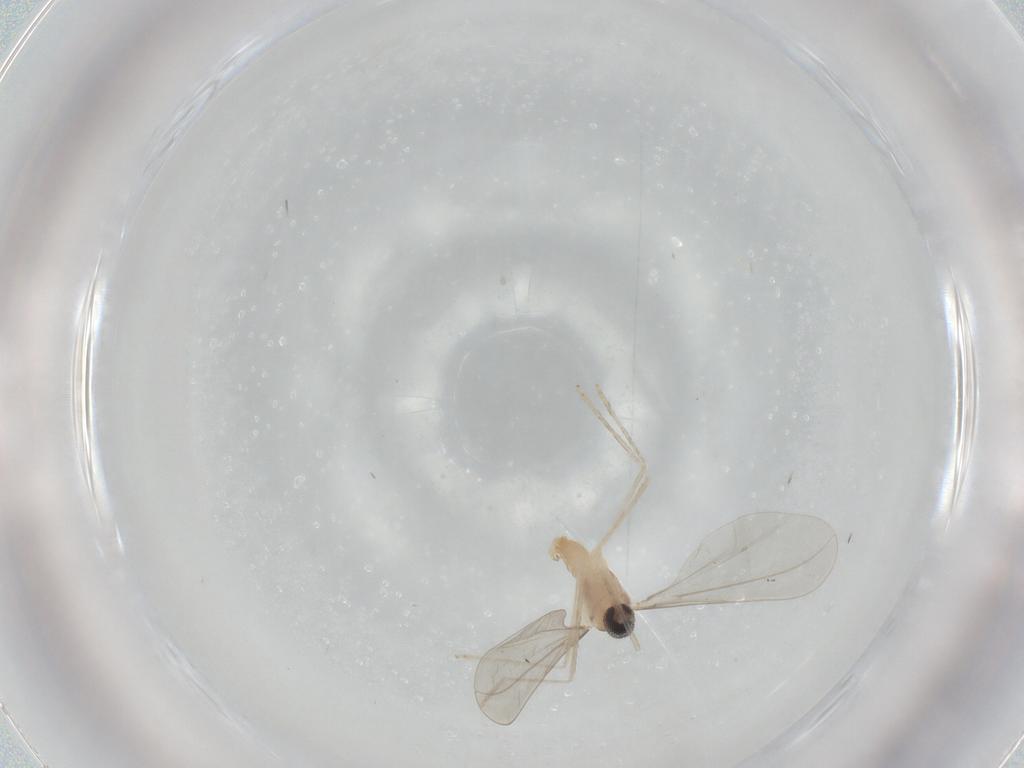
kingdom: Animalia
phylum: Arthropoda
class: Insecta
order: Diptera
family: Cecidomyiidae
